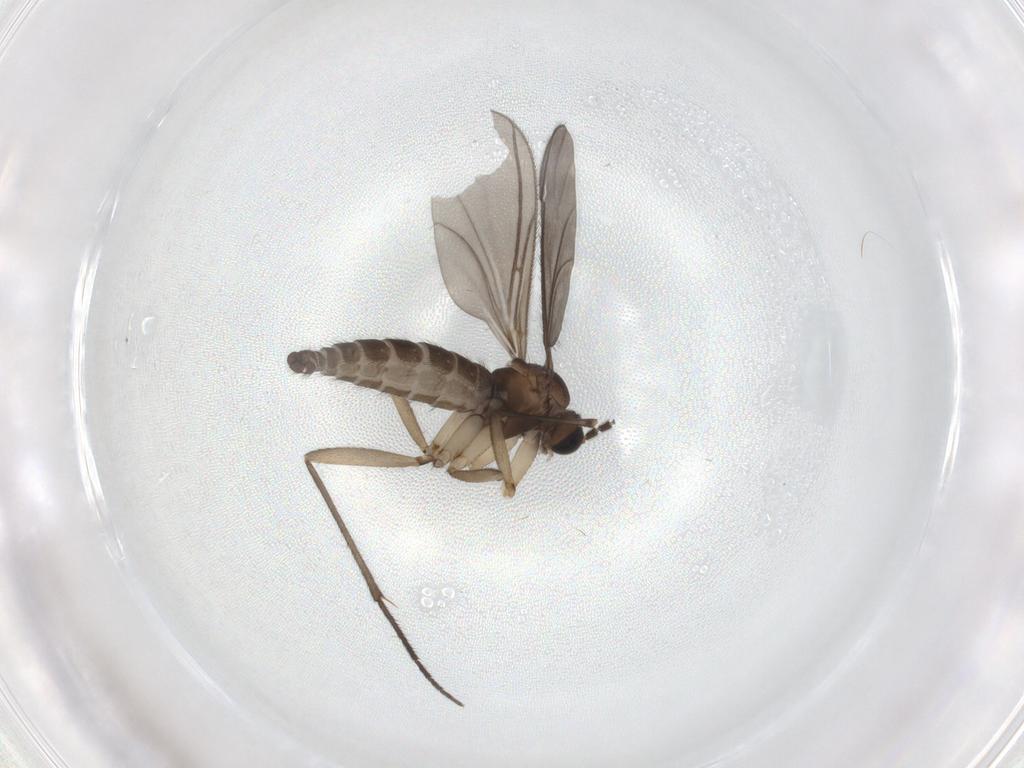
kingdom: Animalia
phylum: Arthropoda
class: Insecta
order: Diptera
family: Sciaridae
